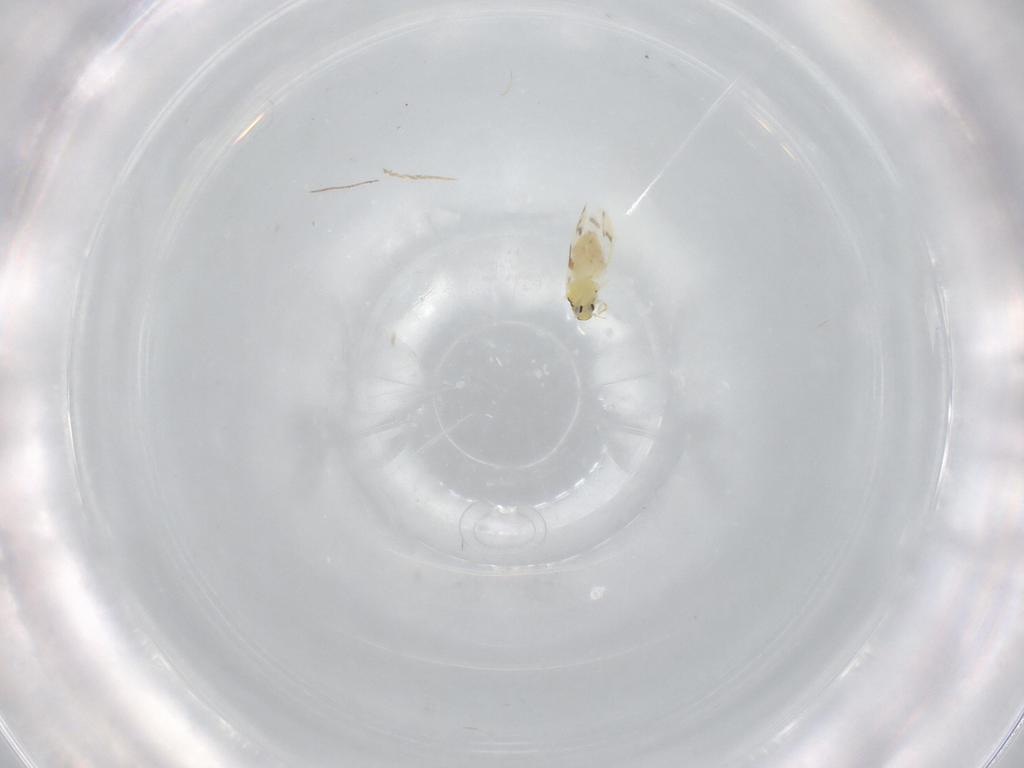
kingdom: Animalia
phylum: Arthropoda
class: Insecta
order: Hemiptera
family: Aleyrodidae
